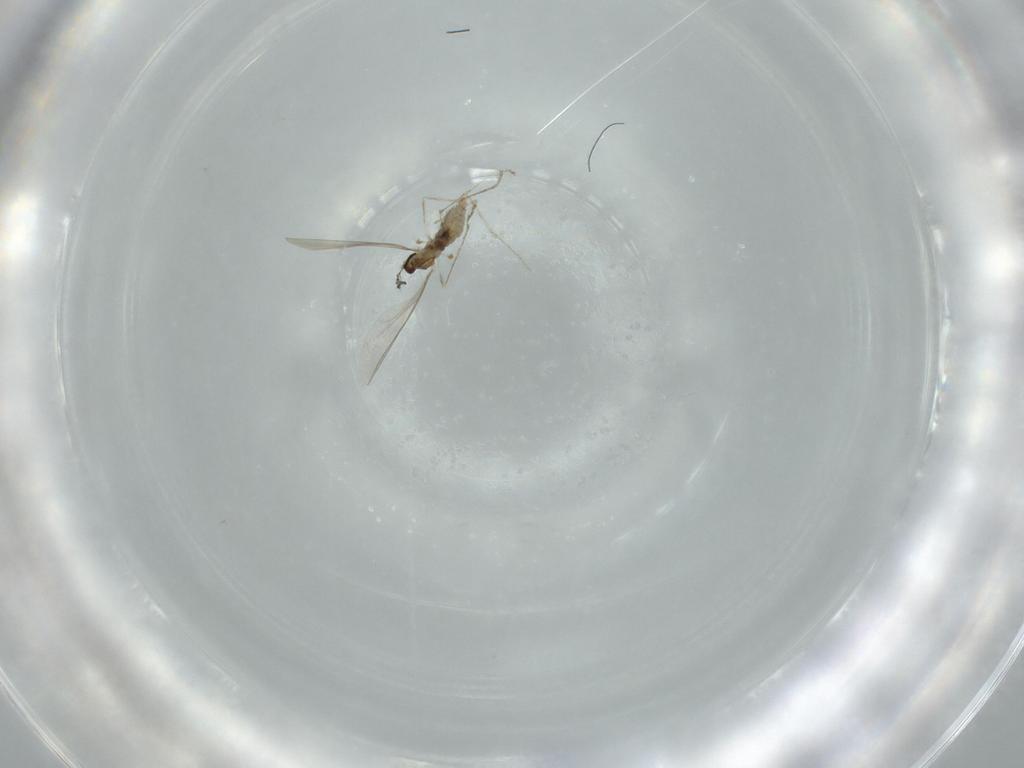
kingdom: Animalia
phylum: Arthropoda
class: Insecta
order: Diptera
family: Cecidomyiidae
